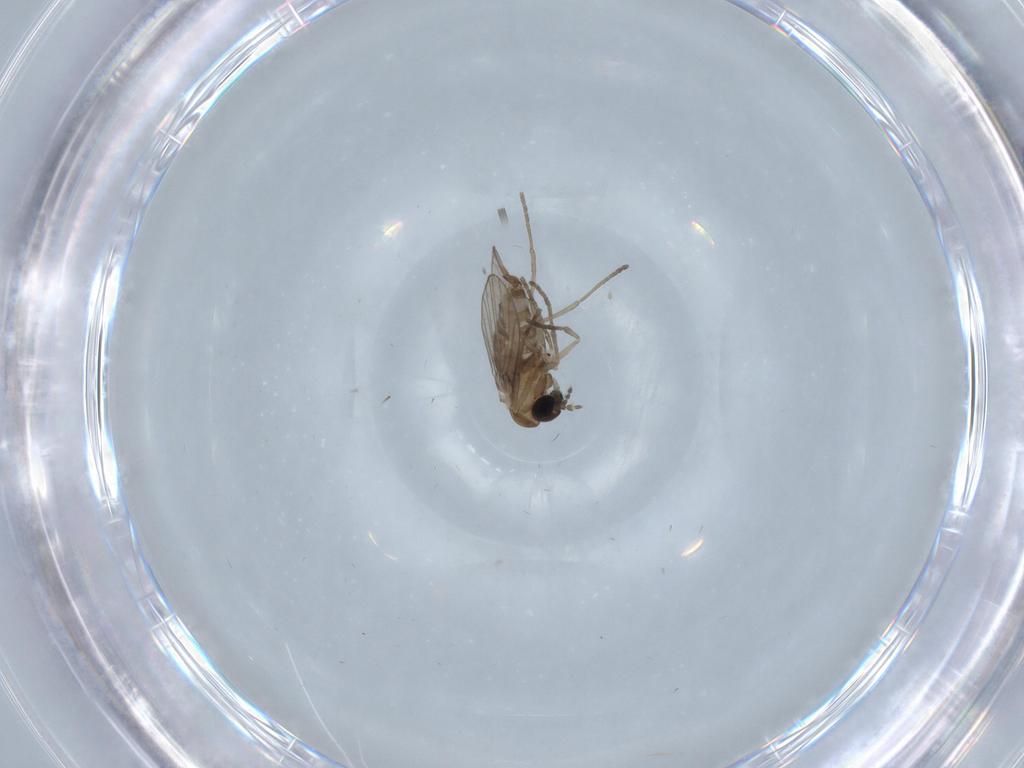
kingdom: Animalia
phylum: Arthropoda
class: Insecta
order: Diptera
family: Psychodidae
